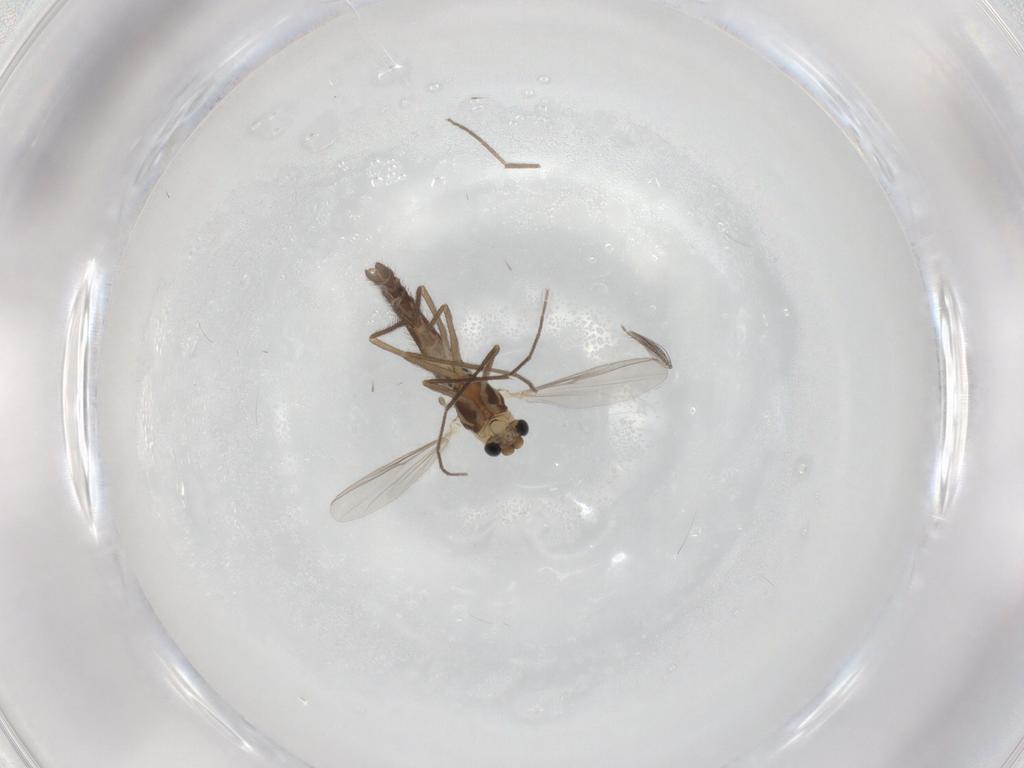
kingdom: Animalia
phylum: Arthropoda
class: Insecta
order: Diptera
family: Chironomidae
